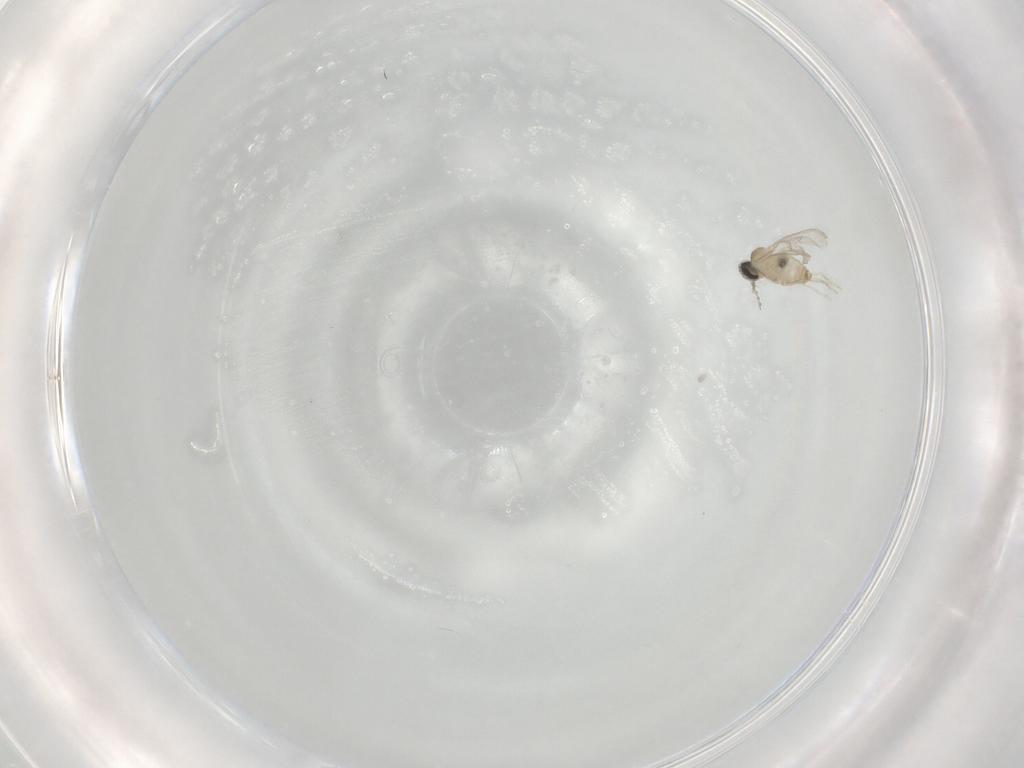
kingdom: Animalia
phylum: Arthropoda
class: Insecta
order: Diptera
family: Cecidomyiidae
